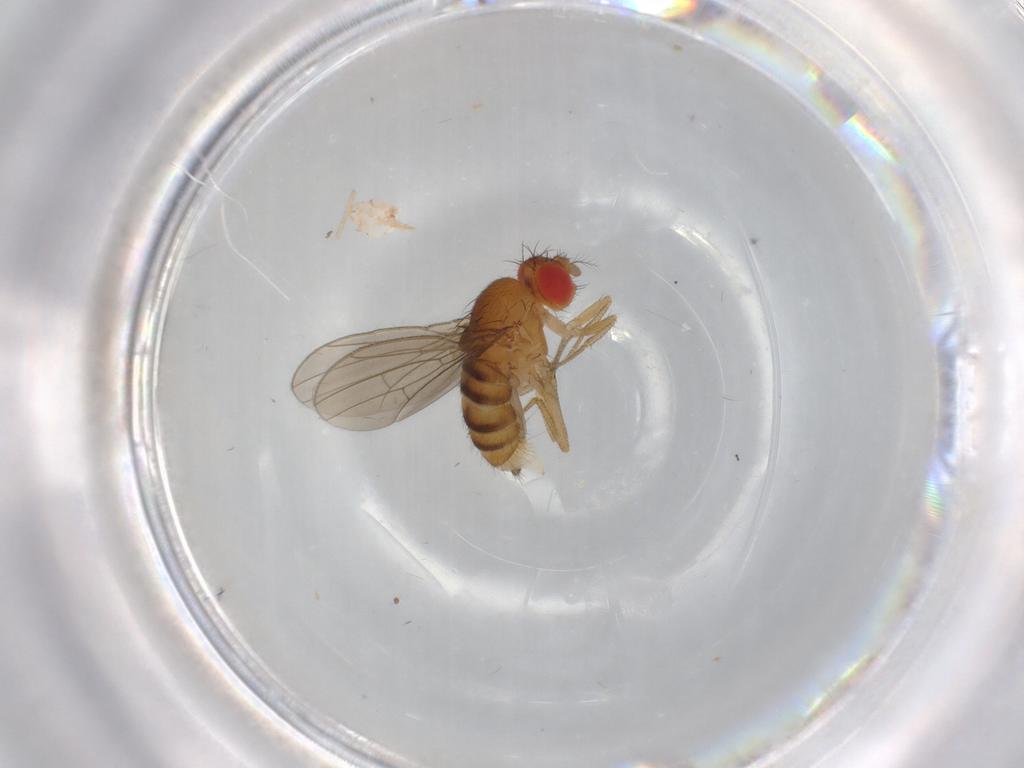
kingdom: Animalia
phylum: Arthropoda
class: Insecta
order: Diptera
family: Drosophilidae
